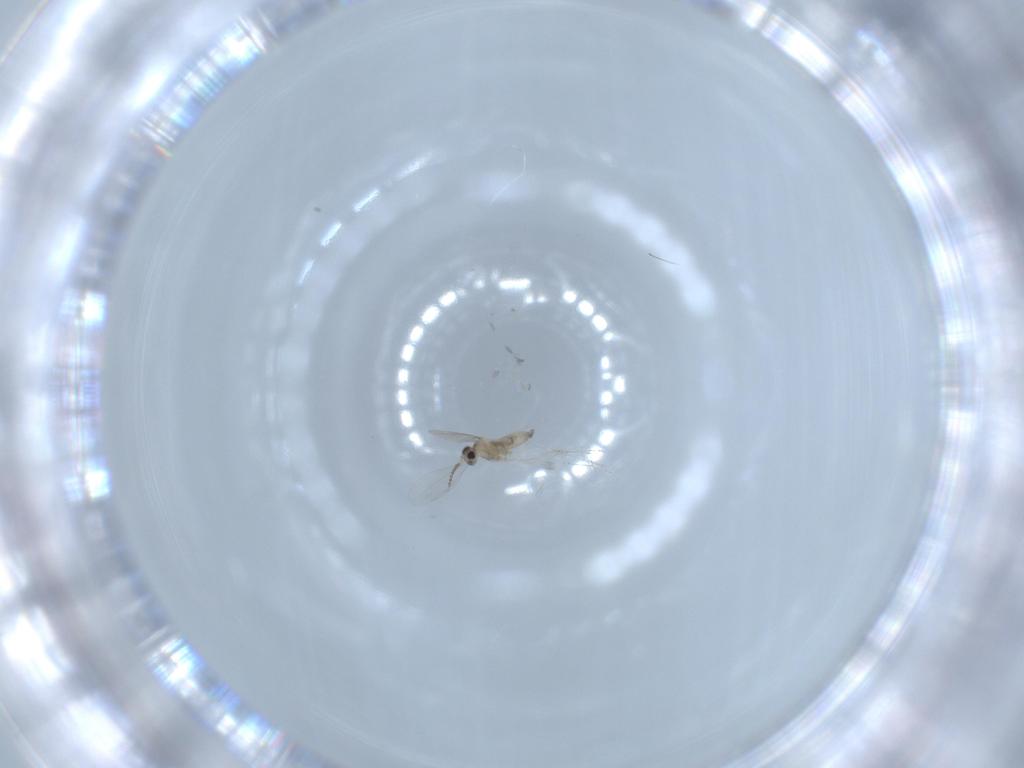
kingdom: Animalia
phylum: Arthropoda
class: Insecta
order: Diptera
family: Cecidomyiidae
